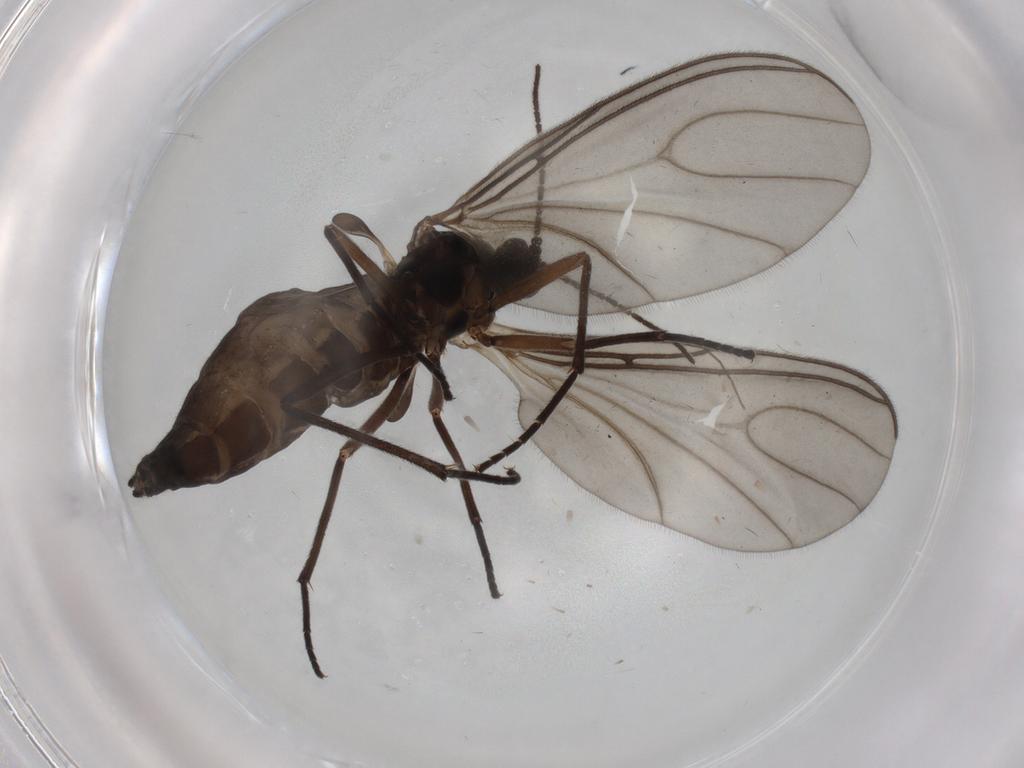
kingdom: Animalia
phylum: Arthropoda
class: Insecta
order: Diptera
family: Sciaridae
